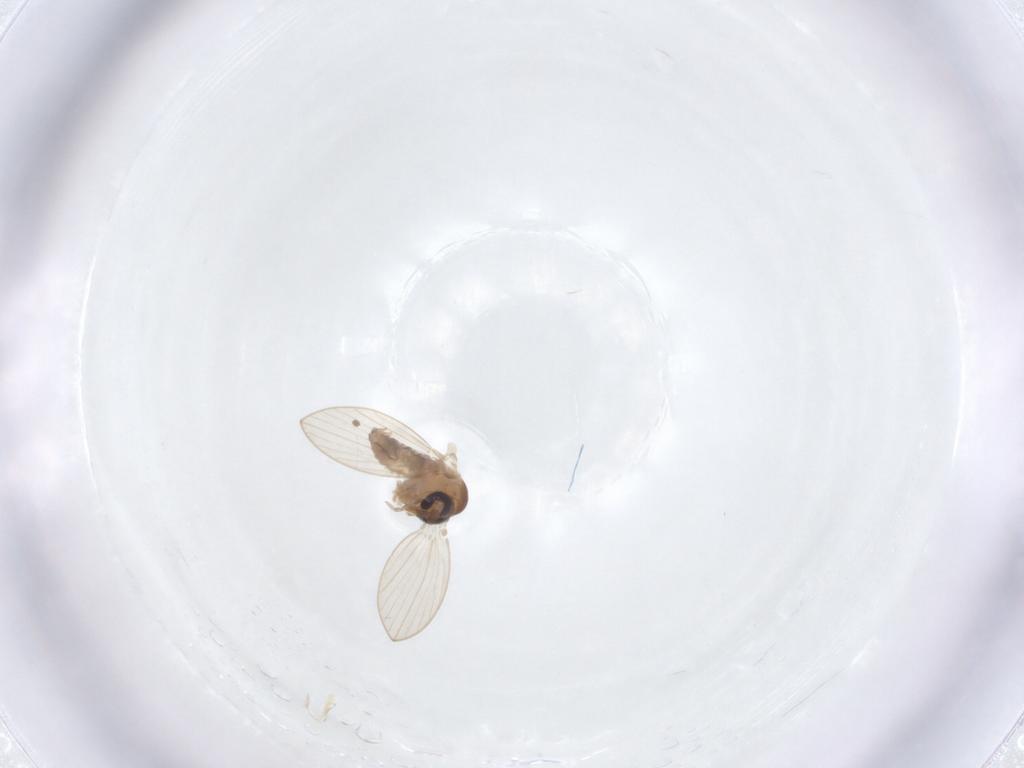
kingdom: Animalia
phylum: Arthropoda
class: Insecta
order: Diptera
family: Psychodidae
